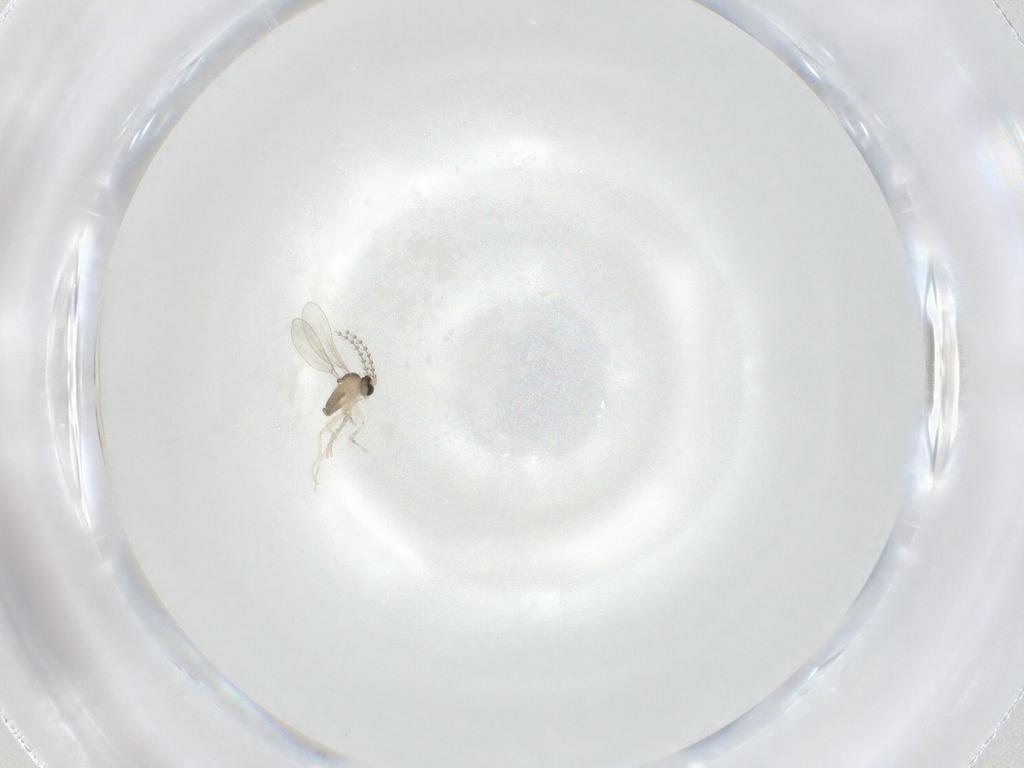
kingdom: Animalia
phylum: Arthropoda
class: Insecta
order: Diptera
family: Cecidomyiidae
